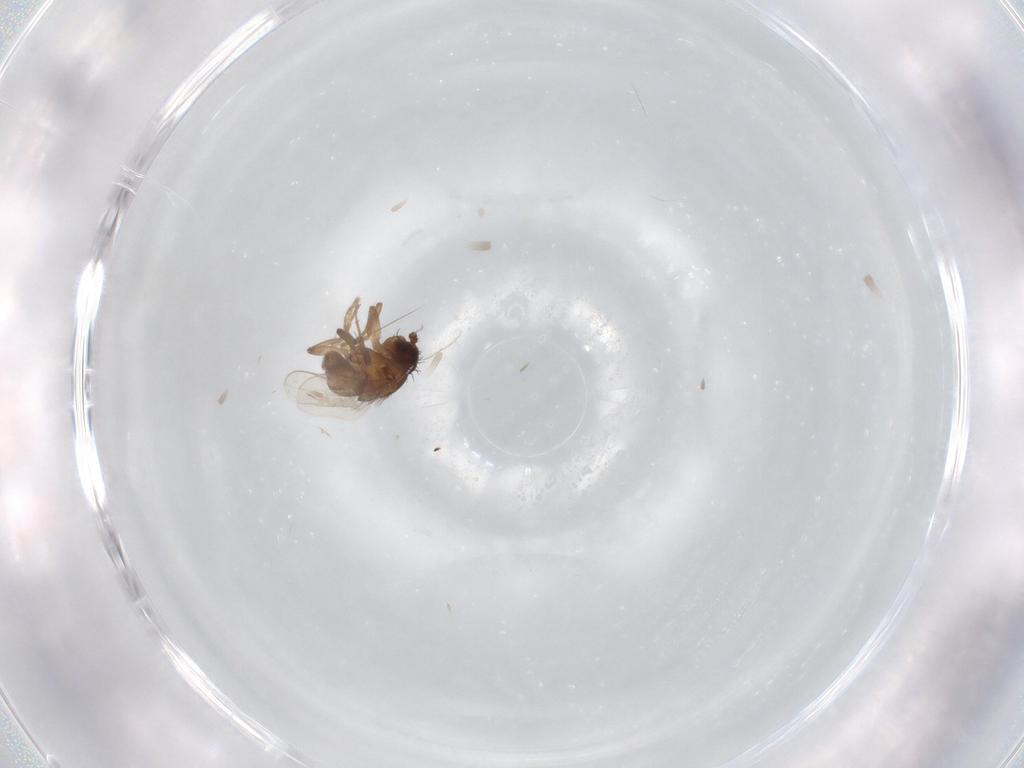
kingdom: Animalia
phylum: Arthropoda
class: Insecta
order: Diptera
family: Sphaeroceridae
